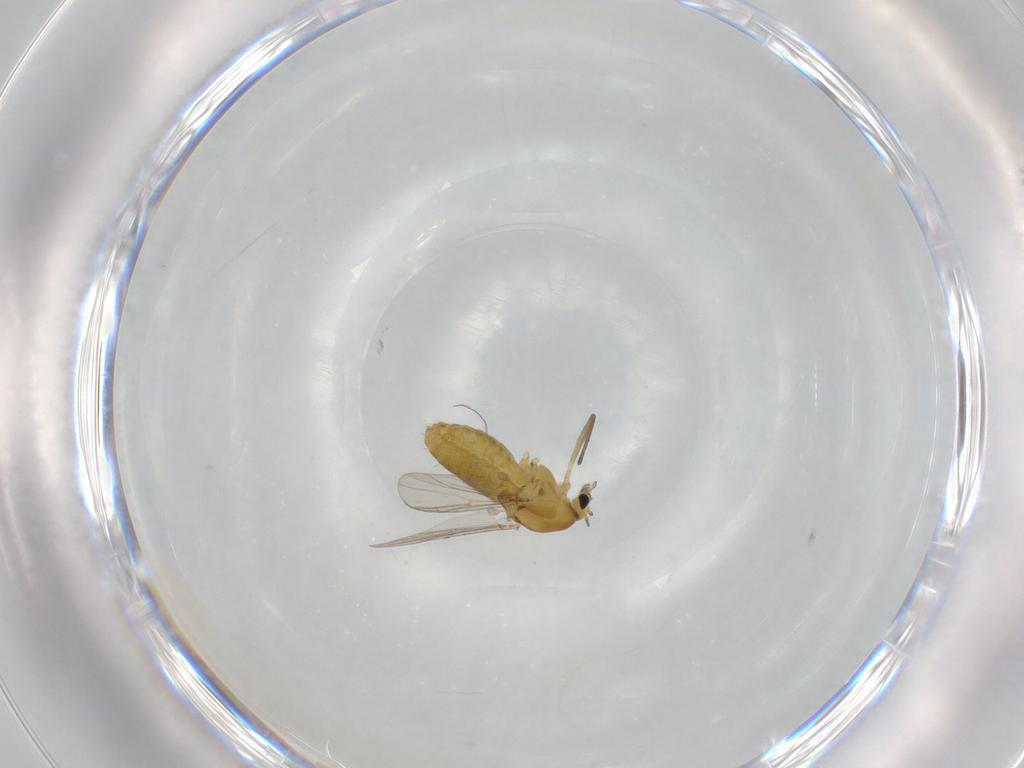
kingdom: Animalia
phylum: Arthropoda
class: Insecta
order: Diptera
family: Chironomidae
